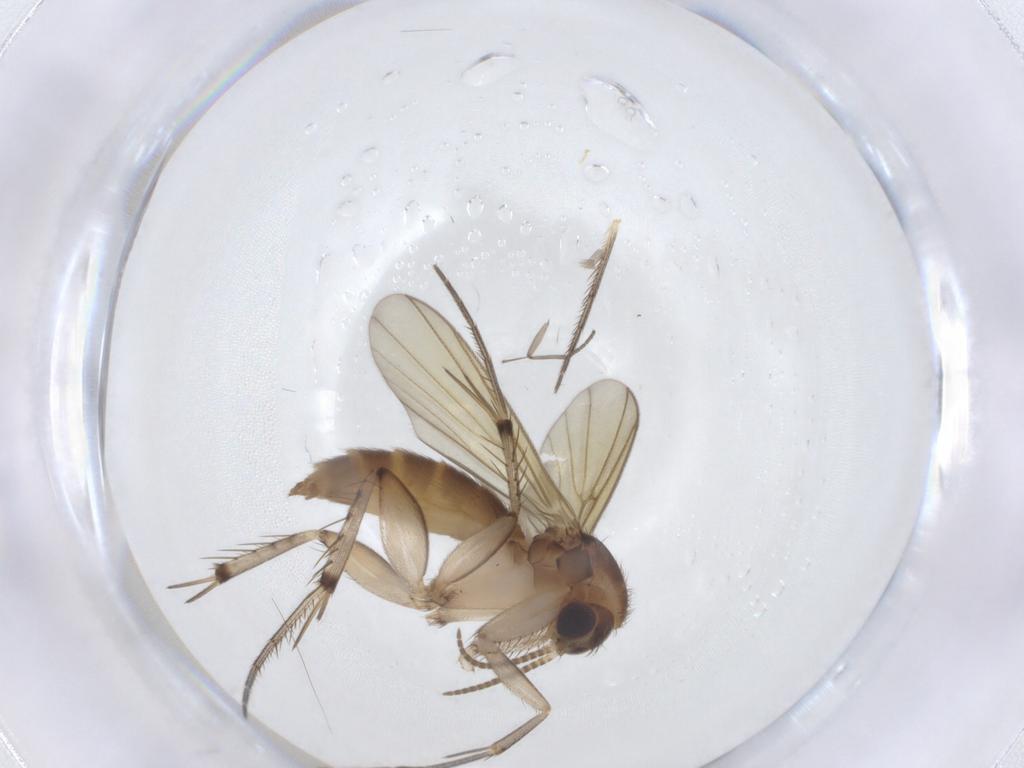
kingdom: Animalia
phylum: Arthropoda
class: Insecta
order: Diptera
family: Mycetophilidae
